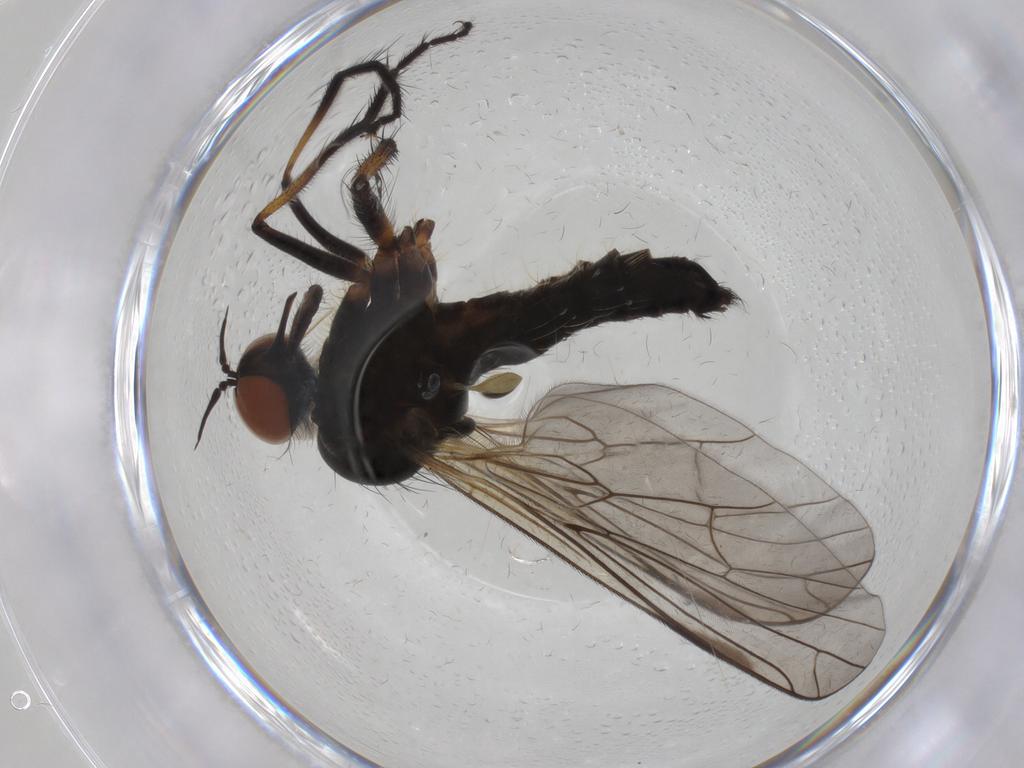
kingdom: Animalia
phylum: Arthropoda
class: Insecta
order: Diptera
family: Empididae
